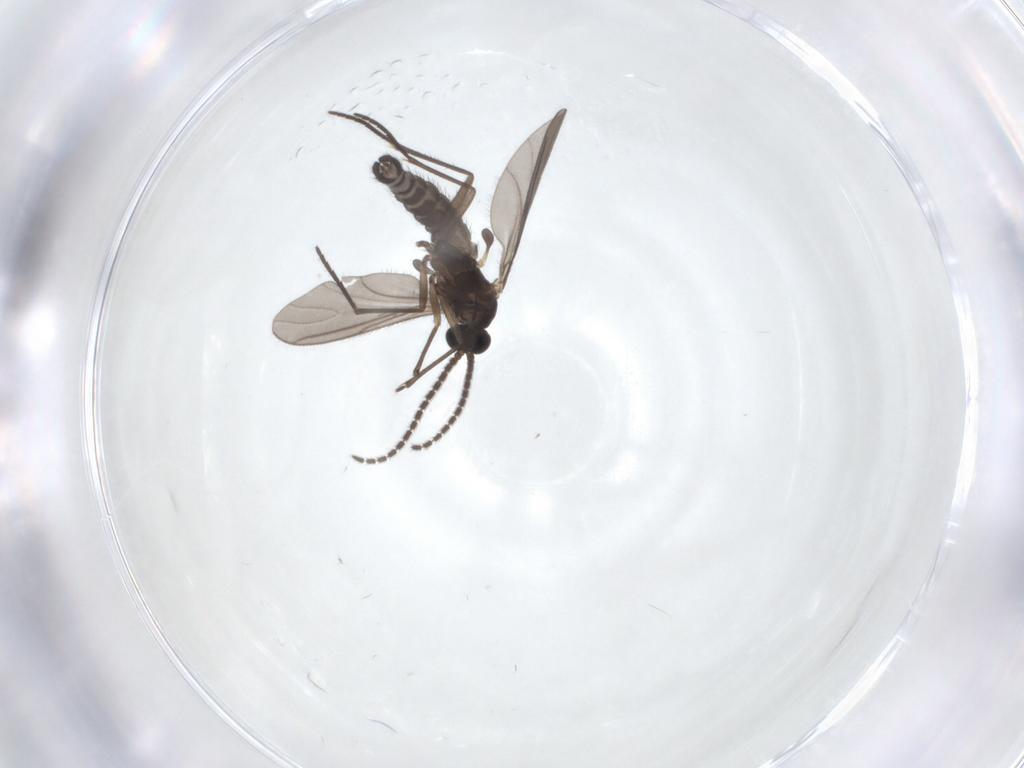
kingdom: Animalia
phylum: Arthropoda
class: Insecta
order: Diptera
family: Sciaridae
